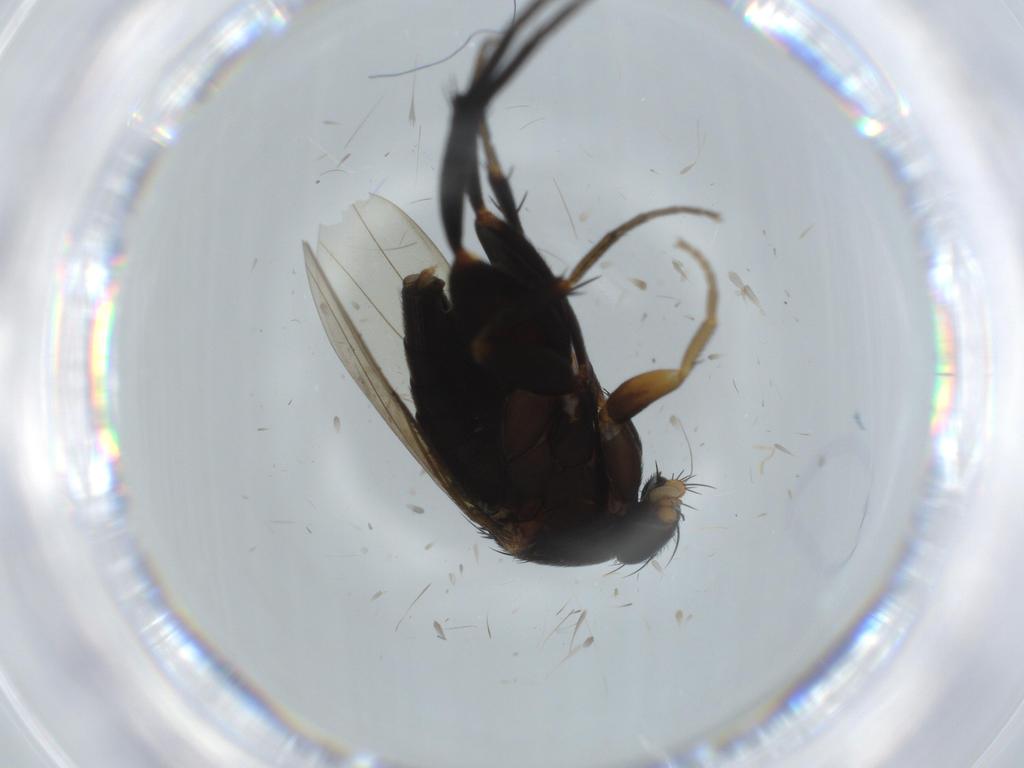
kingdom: Animalia
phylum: Arthropoda
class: Insecta
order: Diptera
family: Phoridae
